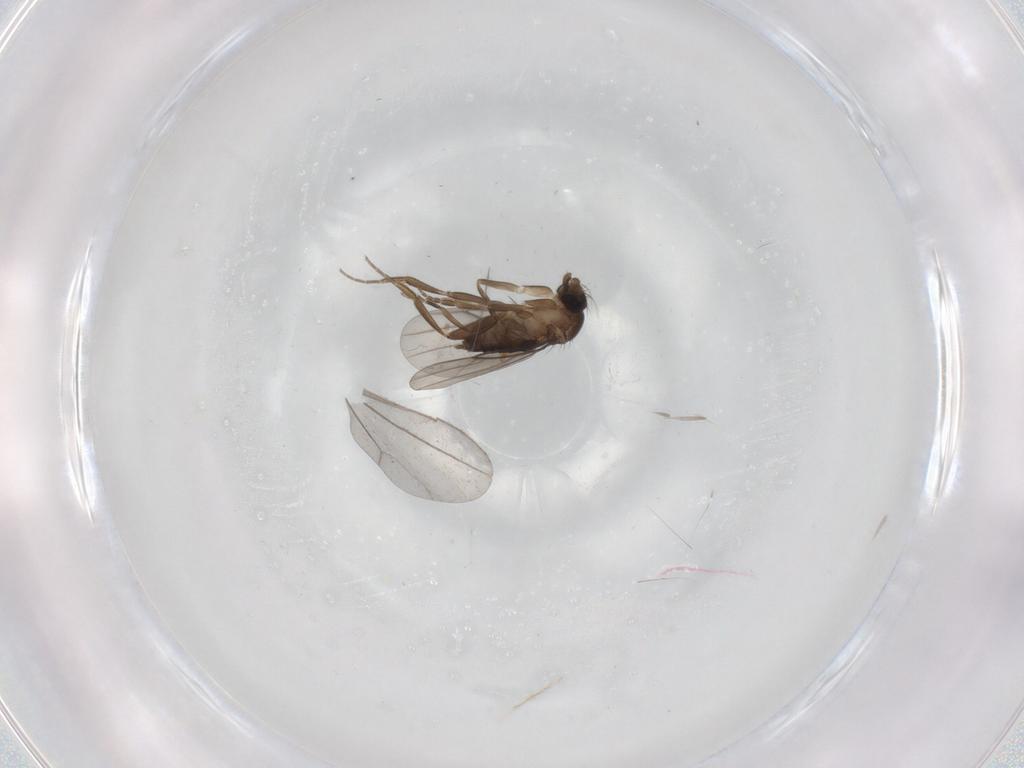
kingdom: Animalia
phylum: Arthropoda
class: Insecta
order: Diptera
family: Phoridae
